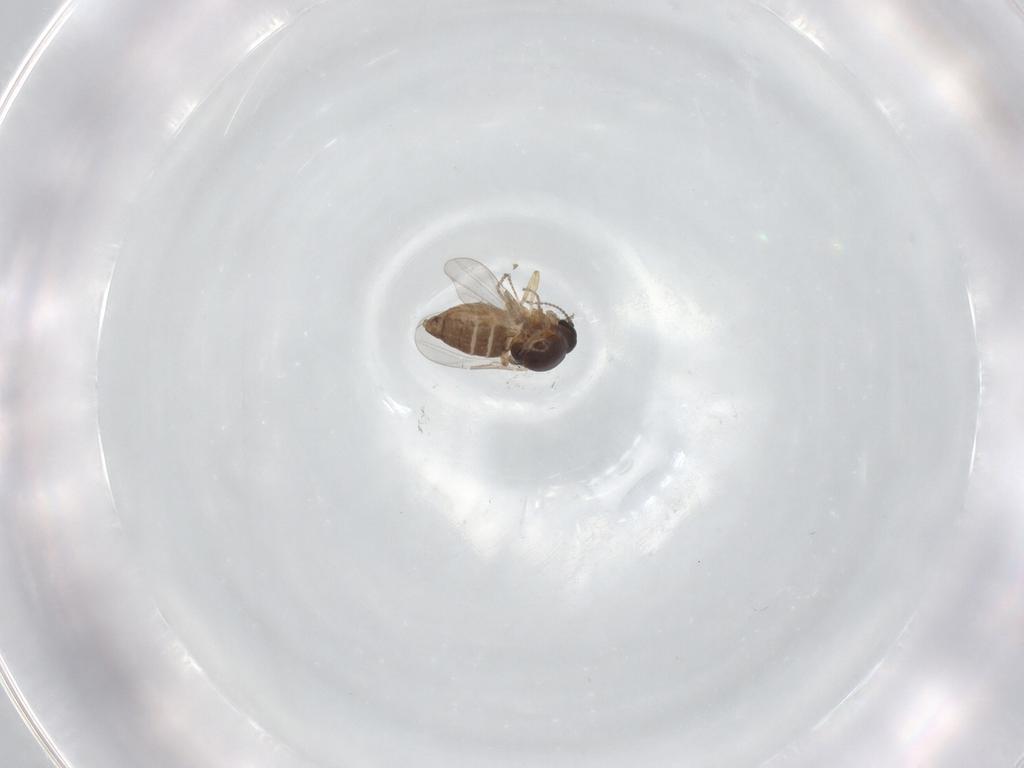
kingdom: Animalia
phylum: Arthropoda
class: Insecta
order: Diptera
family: Ceratopogonidae
